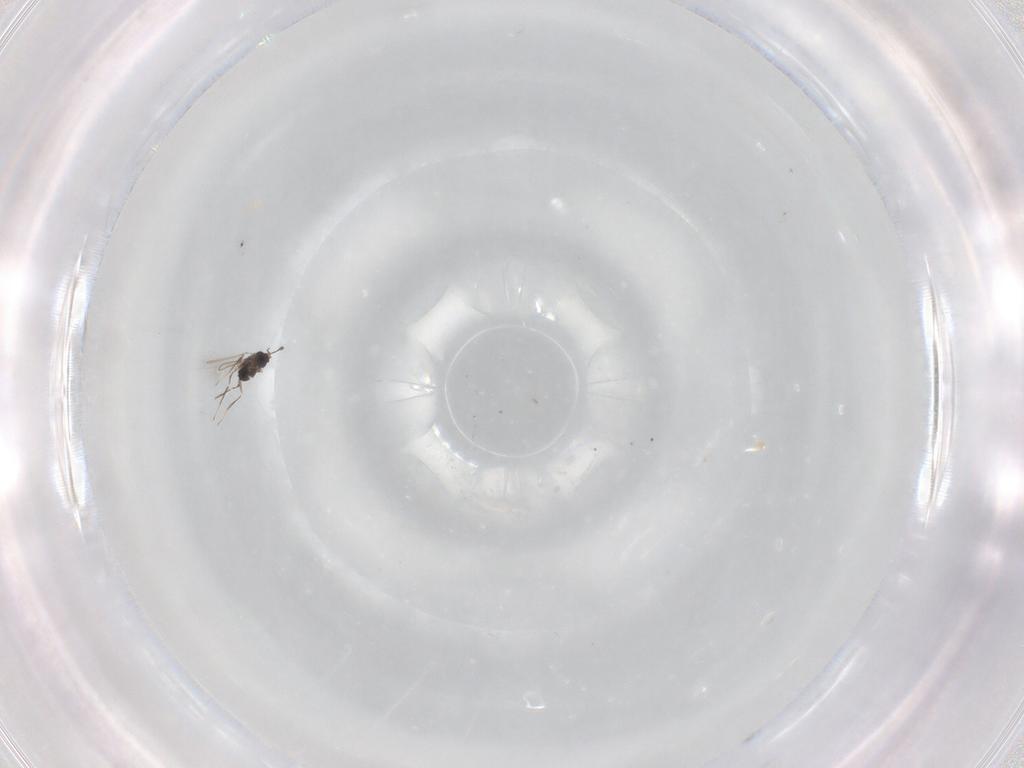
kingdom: Animalia
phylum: Arthropoda
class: Insecta
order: Hymenoptera
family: Mymaridae
